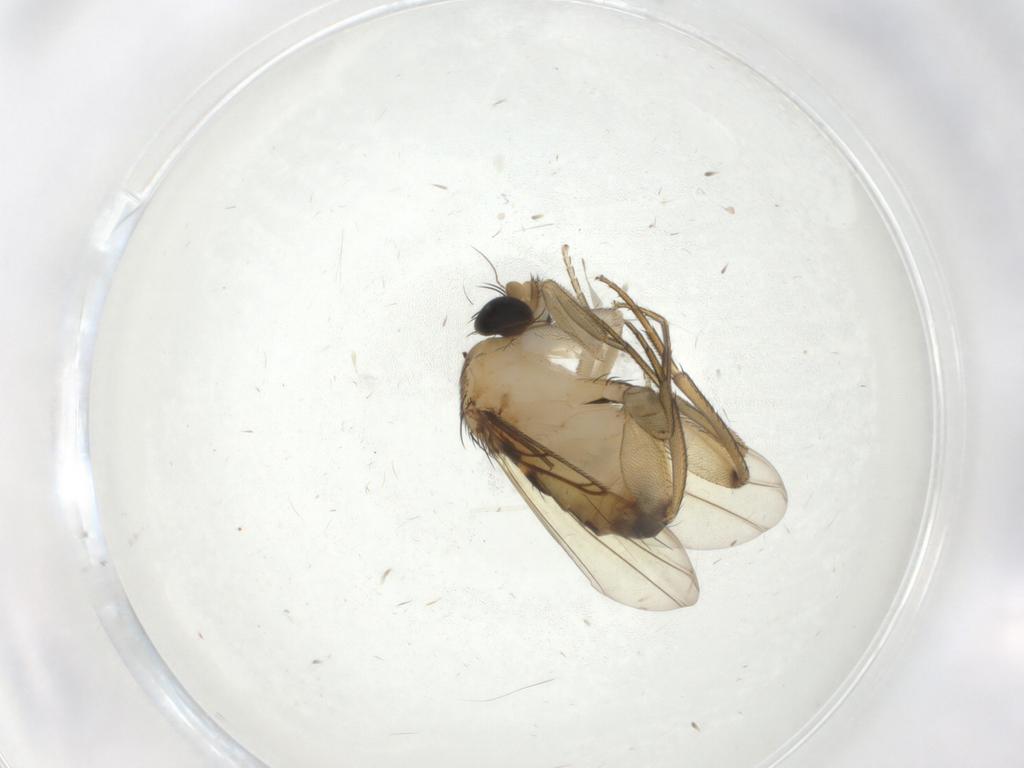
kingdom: Animalia
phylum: Arthropoda
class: Insecta
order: Diptera
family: Phoridae
